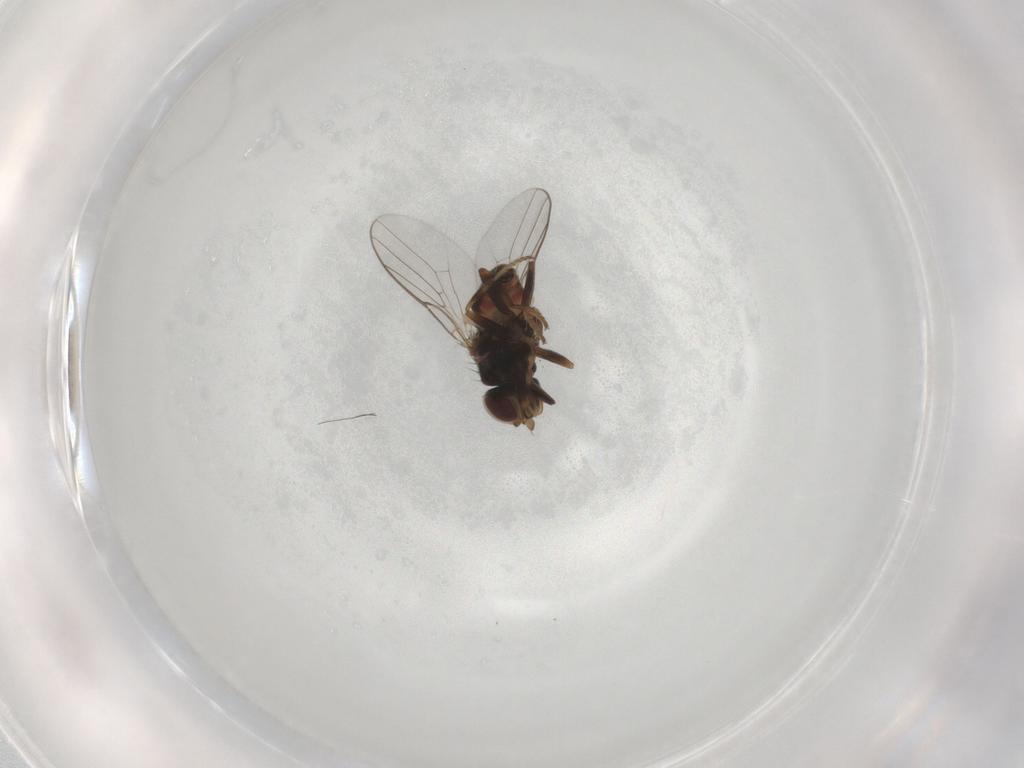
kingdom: Animalia
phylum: Arthropoda
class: Insecta
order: Diptera
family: Chloropidae
